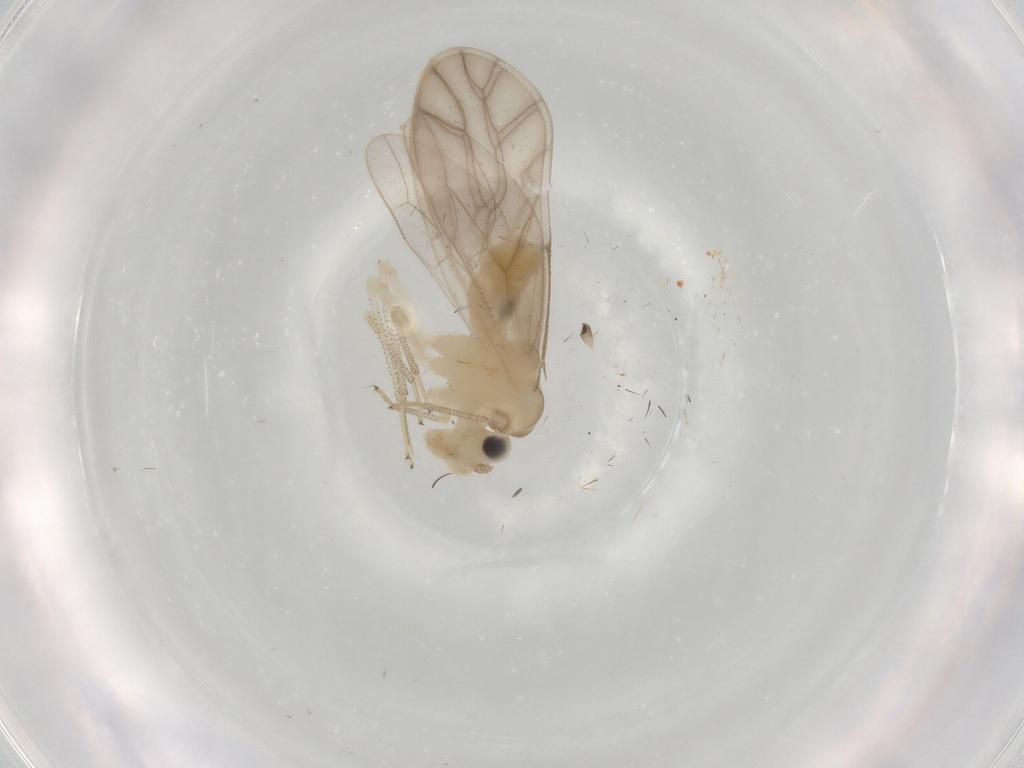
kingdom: Animalia
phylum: Arthropoda
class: Insecta
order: Psocodea
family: Caeciliusidae
